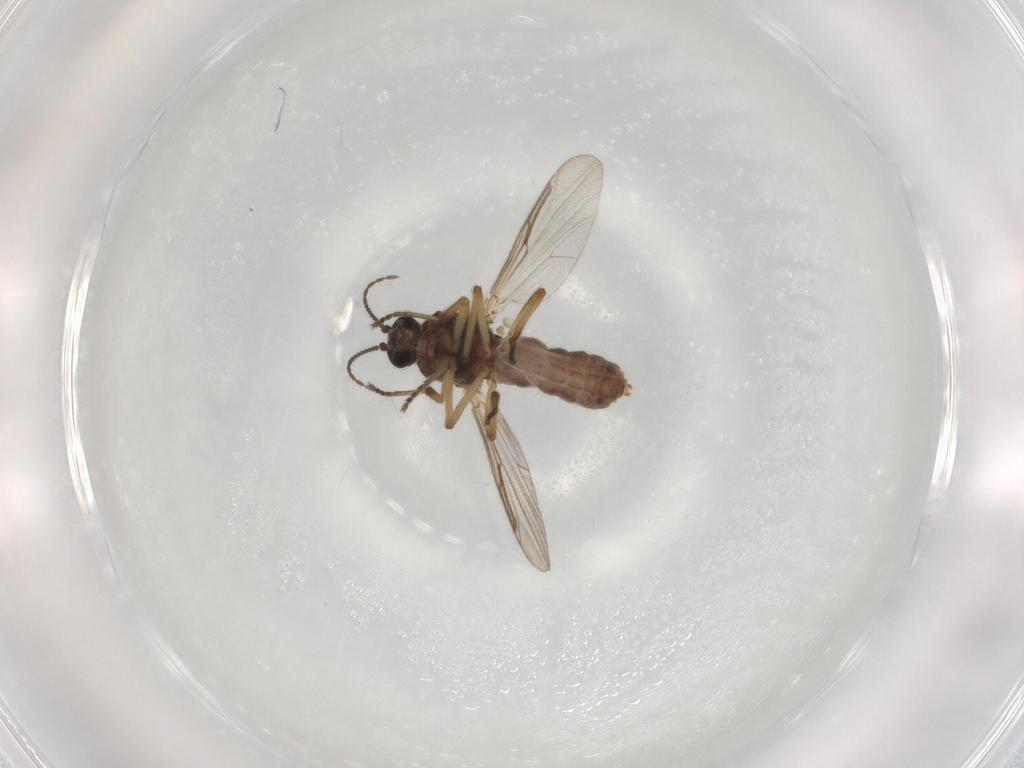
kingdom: Animalia
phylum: Arthropoda
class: Insecta
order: Diptera
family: Ceratopogonidae
